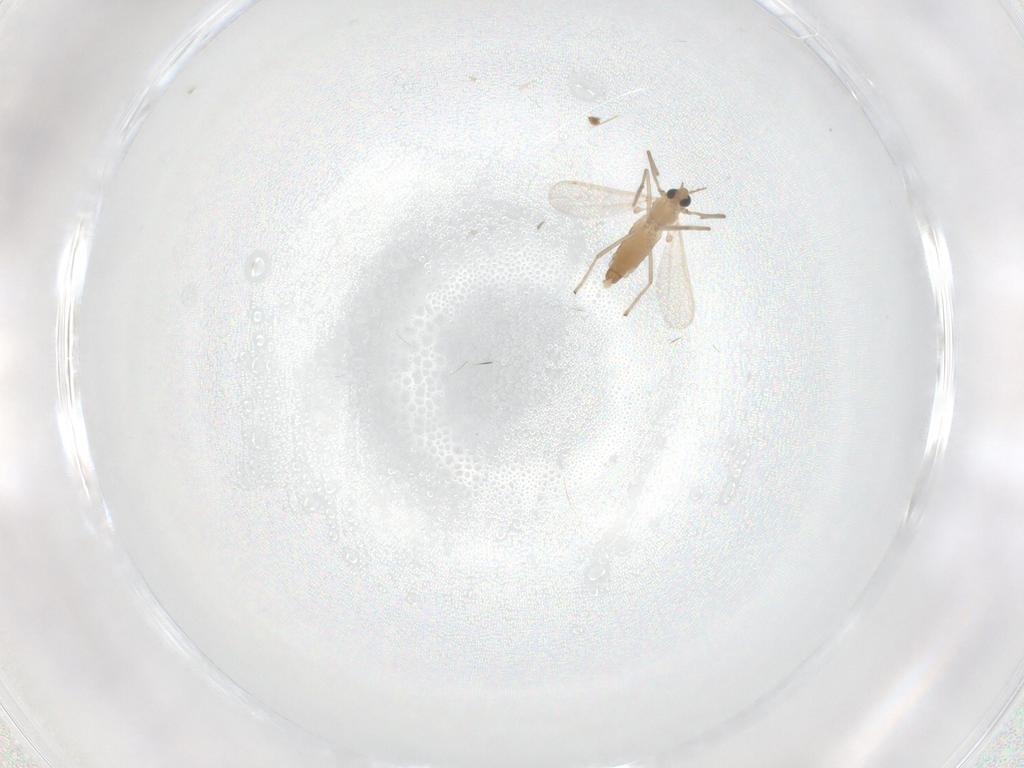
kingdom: Animalia
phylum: Arthropoda
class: Insecta
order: Diptera
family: Chironomidae
